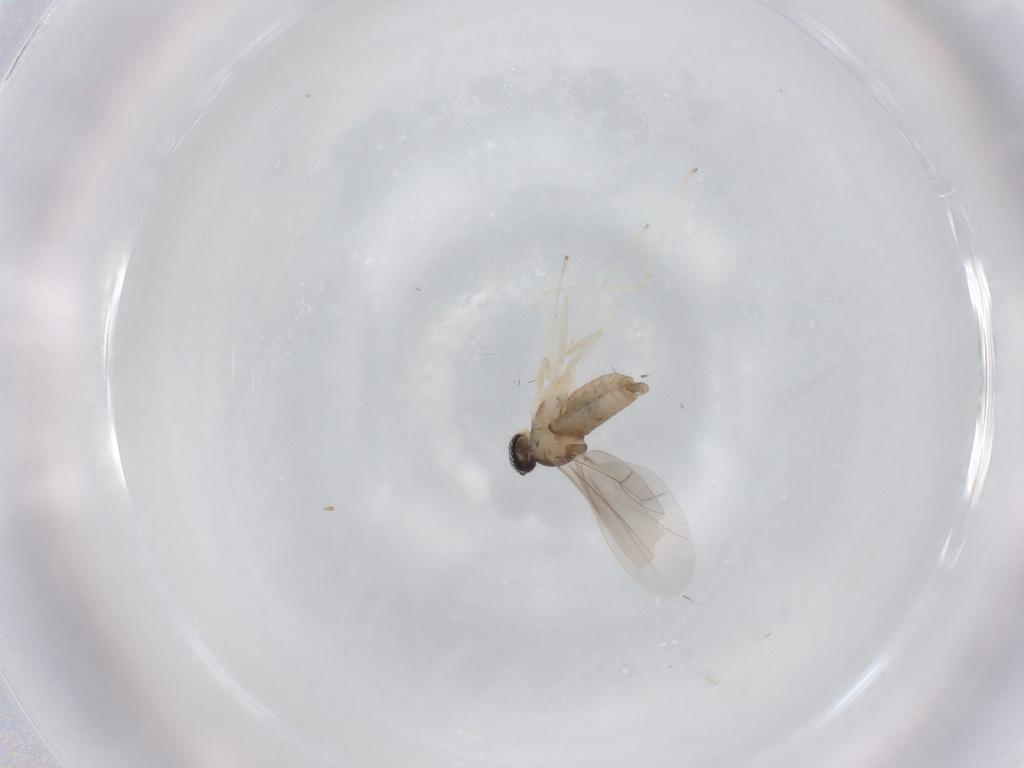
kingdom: Animalia
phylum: Arthropoda
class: Insecta
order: Diptera
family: Mycetophilidae
